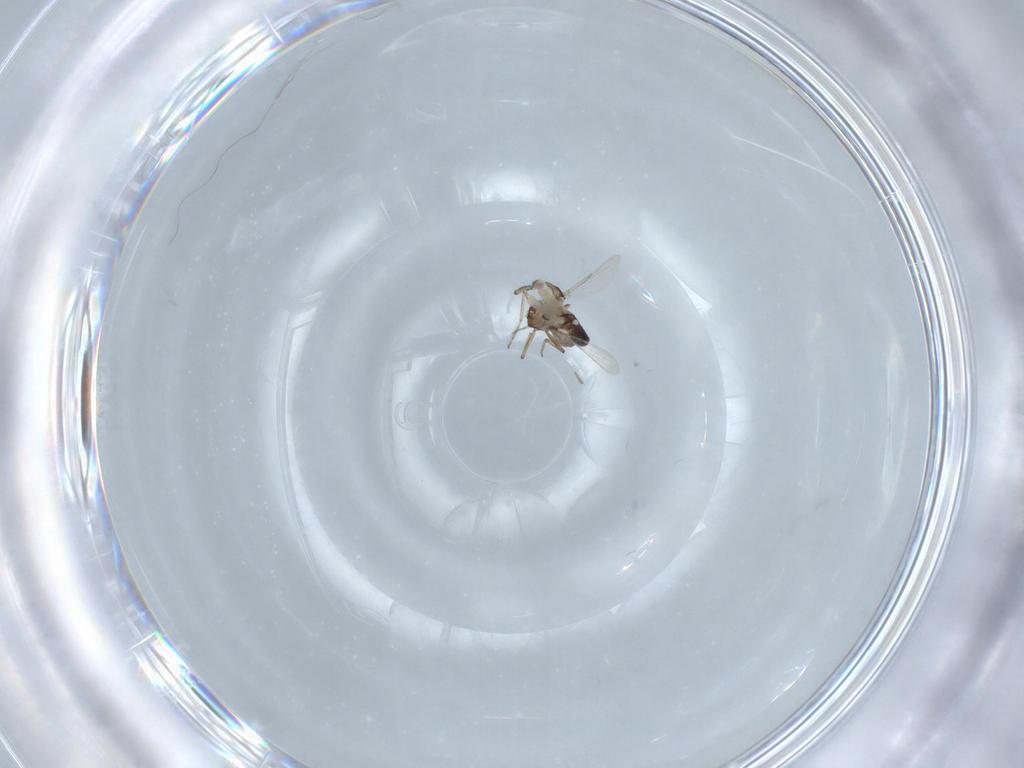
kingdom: Animalia
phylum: Arthropoda
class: Insecta
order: Diptera
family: Ceratopogonidae
